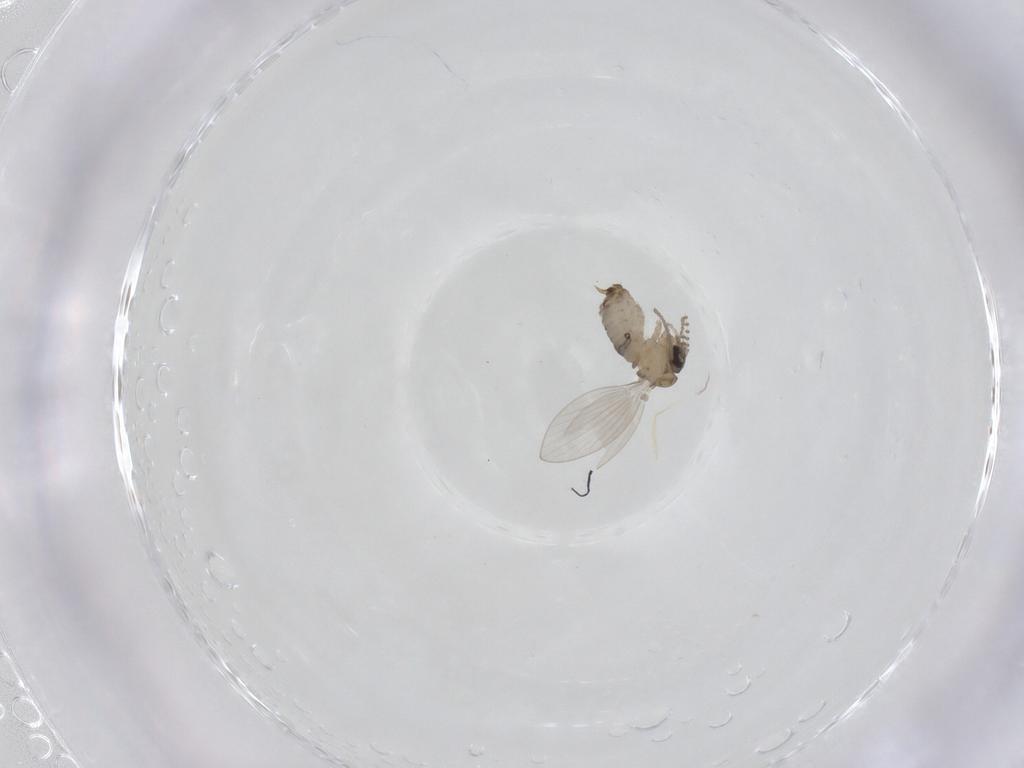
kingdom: Animalia
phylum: Arthropoda
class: Insecta
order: Diptera
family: Psychodidae
